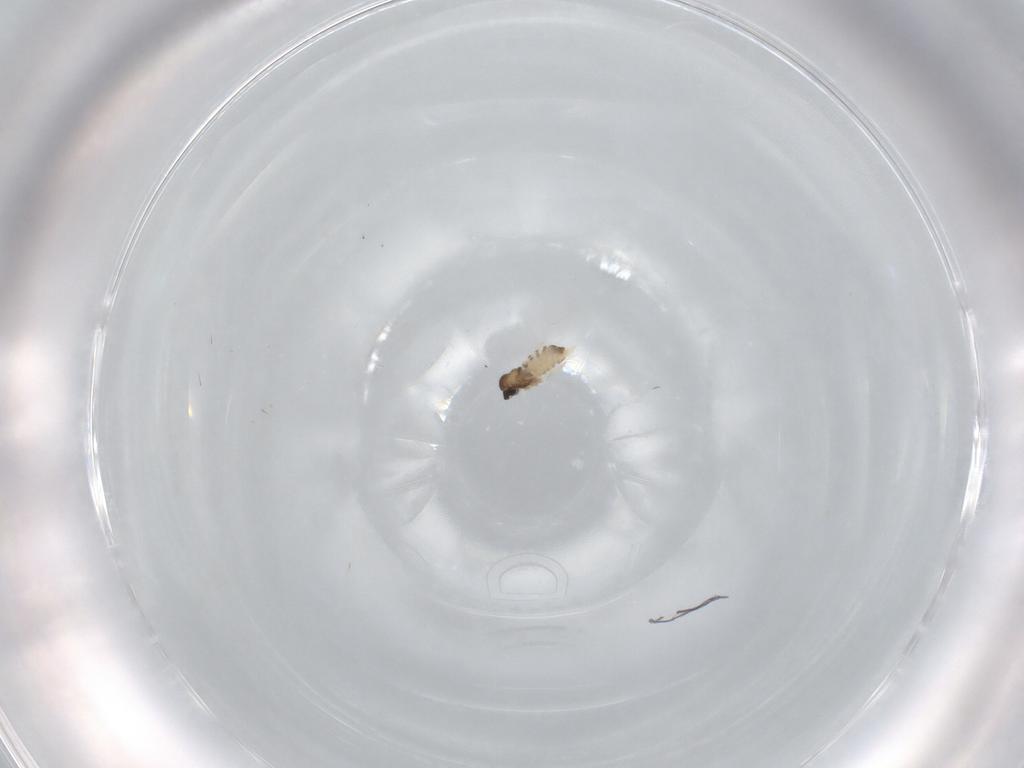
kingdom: Animalia
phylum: Arthropoda
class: Insecta
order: Diptera
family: Cecidomyiidae
